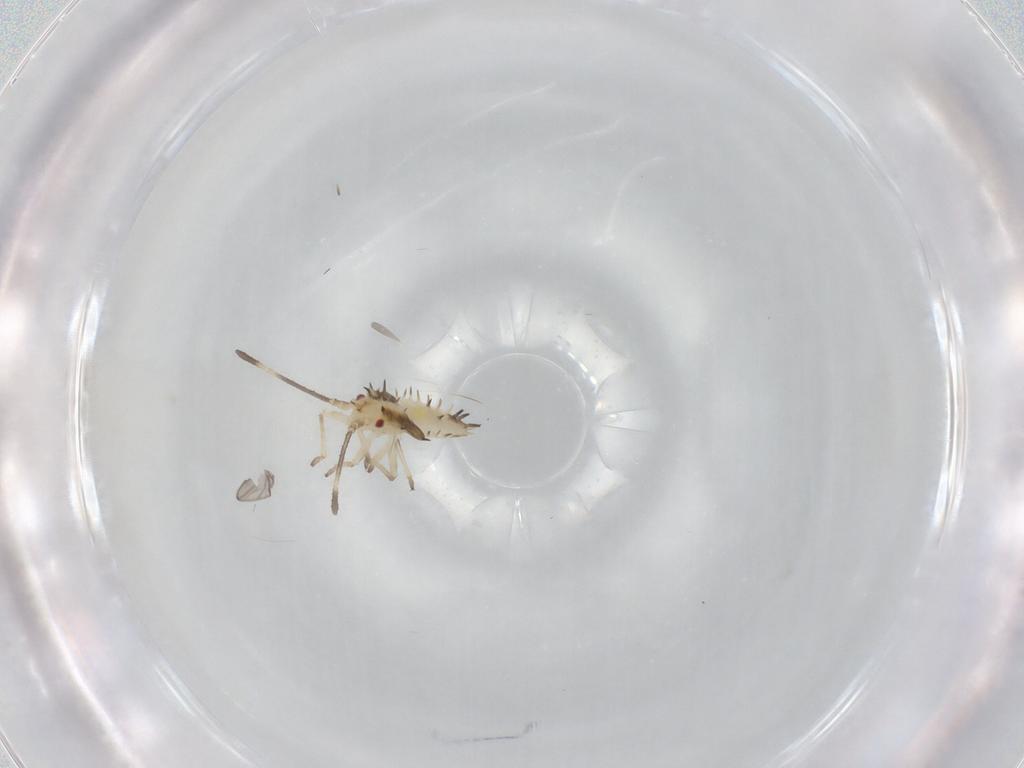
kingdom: Animalia
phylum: Arthropoda
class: Insecta
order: Hemiptera
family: Tingidae
